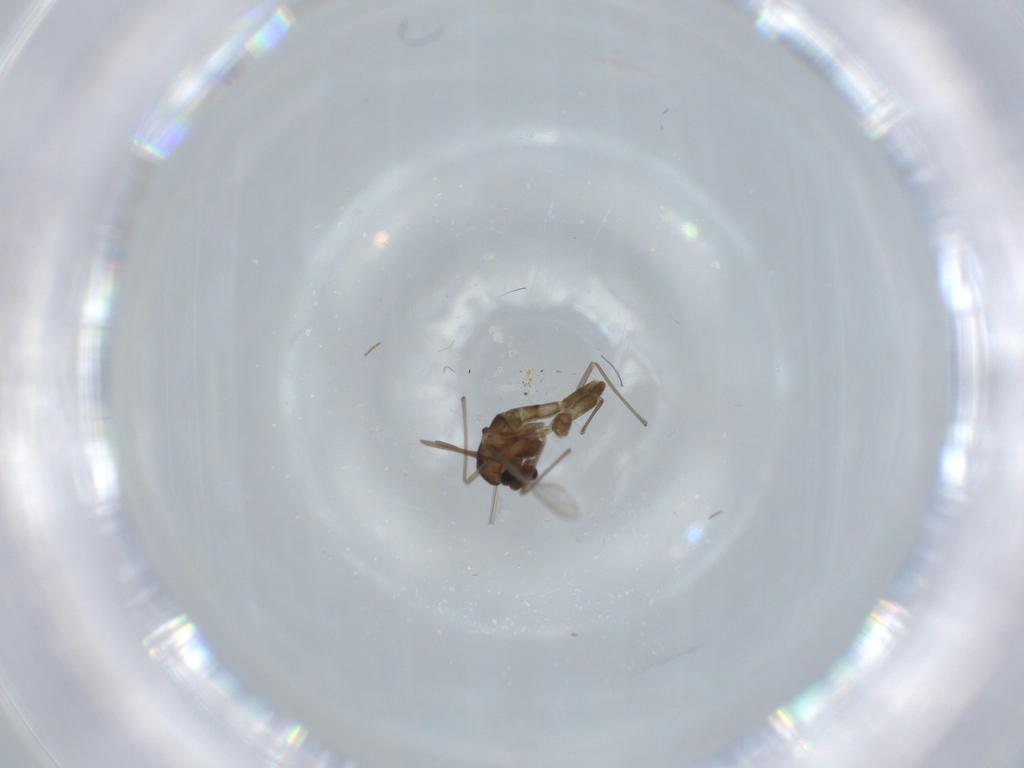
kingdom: Animalia
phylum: Arthropoda
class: Insecta
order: Diptera
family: Chironomidae
